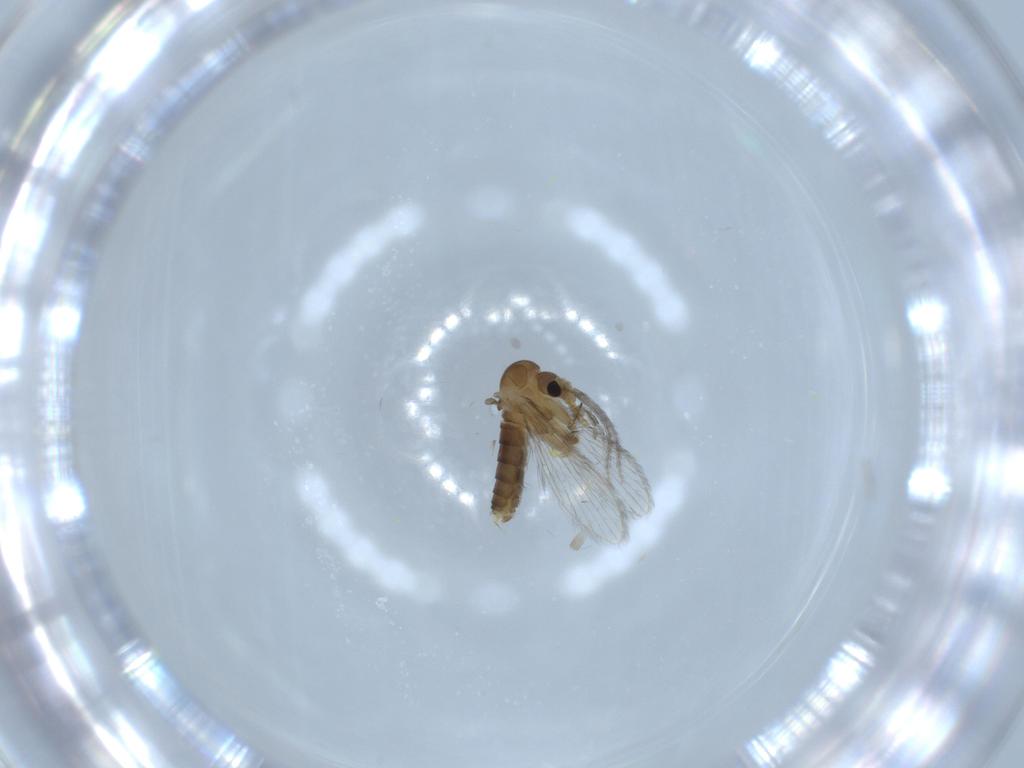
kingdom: Animalia
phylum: Arthropoda
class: Insecta
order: Diptera
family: Psychodidae
